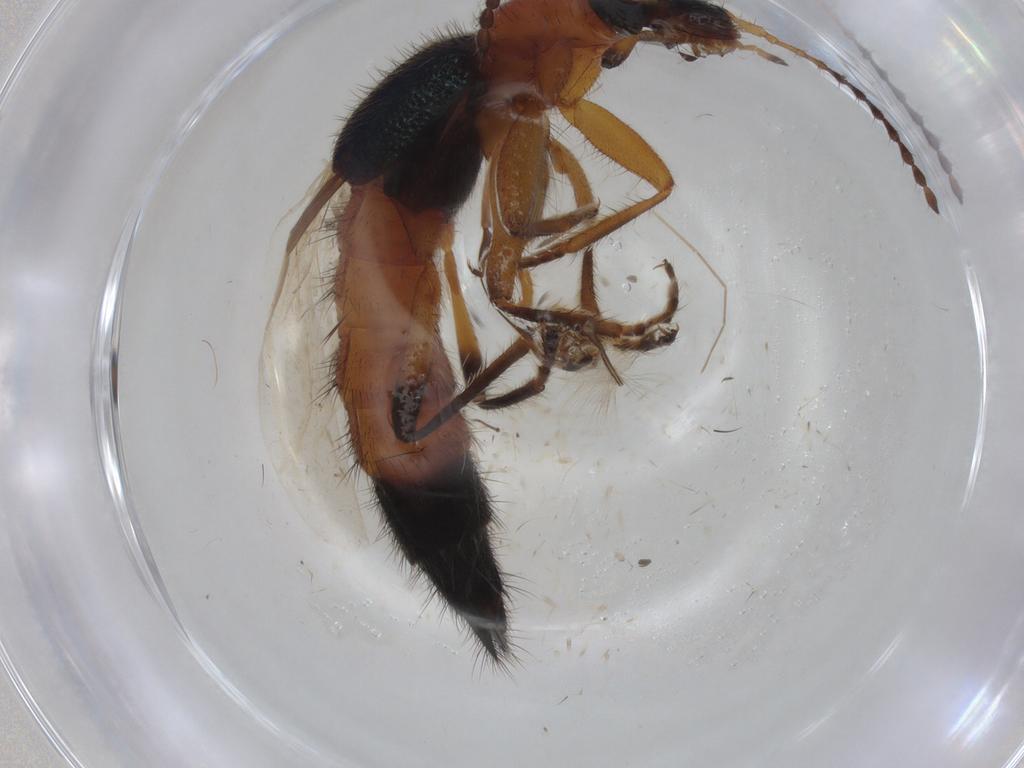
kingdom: Animalia
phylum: Arthropoda
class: Insecta
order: Coleoptera
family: Staphylinidae
